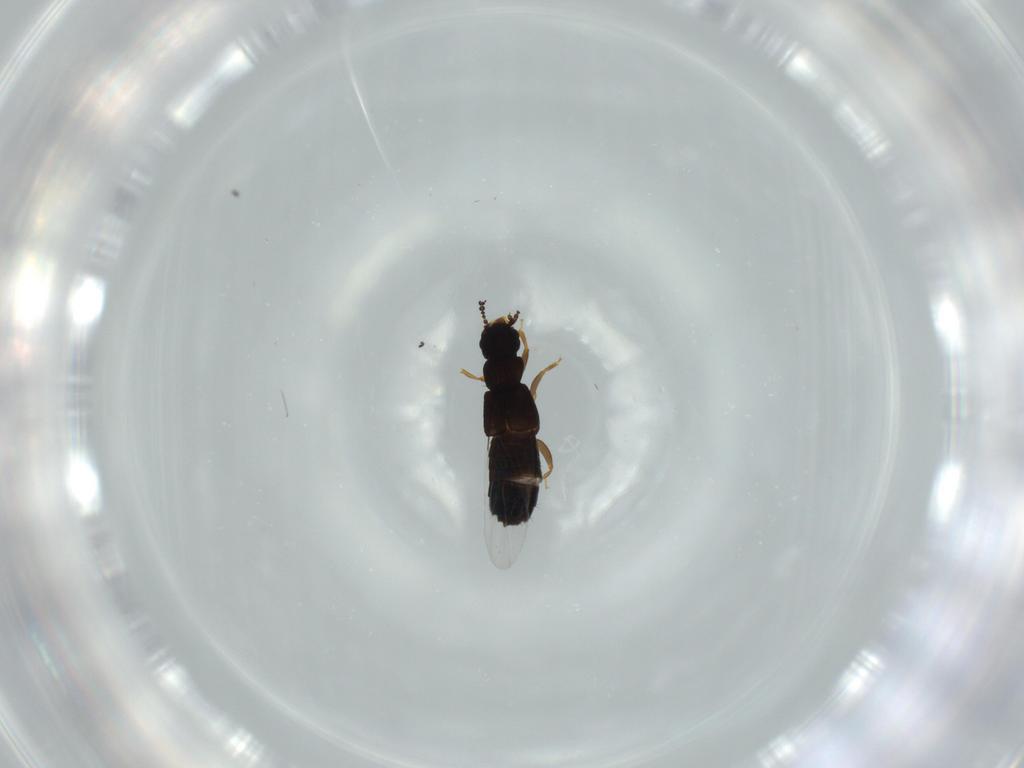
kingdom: Animalia
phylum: Arthropoda
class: Insecta
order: Coleoptera
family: Staphylinidae
